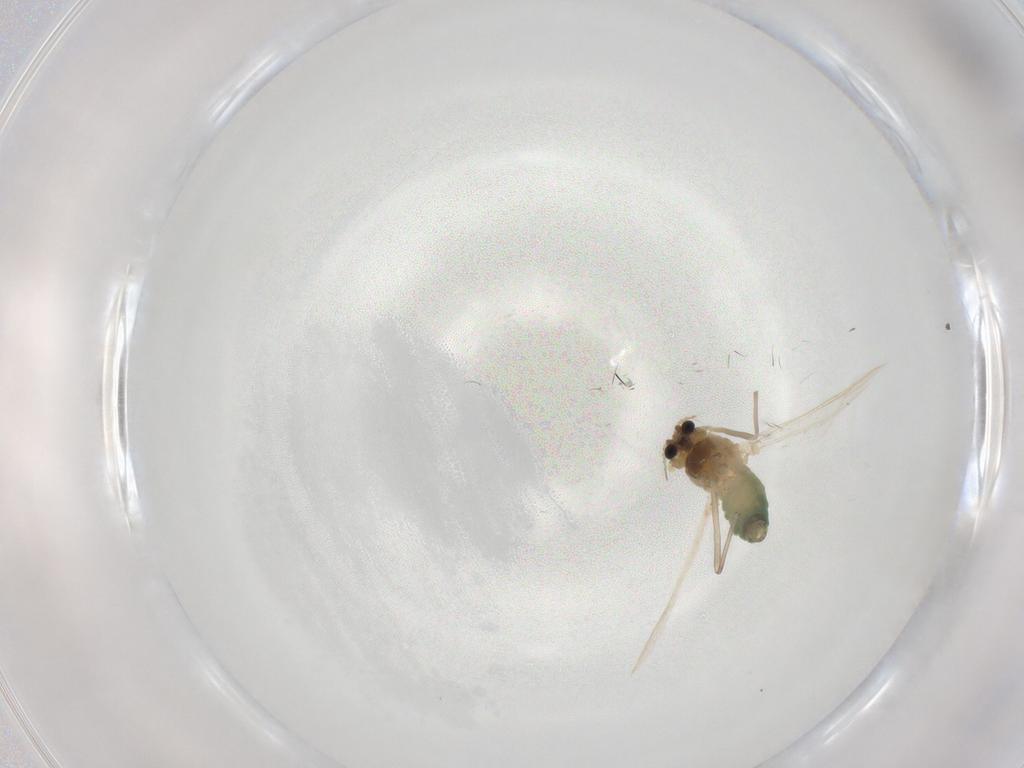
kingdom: Animalia
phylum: Arthropoda
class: Insecta
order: Diptera
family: Chironomidae
